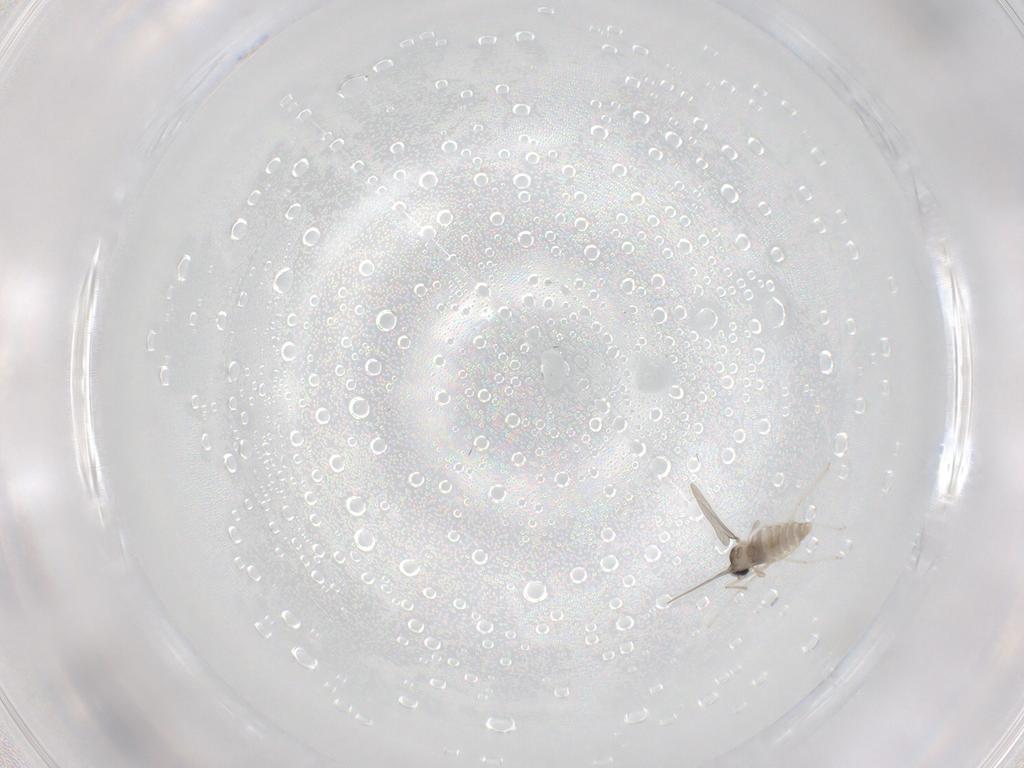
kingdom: Animalia
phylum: Arthropoda
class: Insecta
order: Diptera
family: Cecidomyiidae
